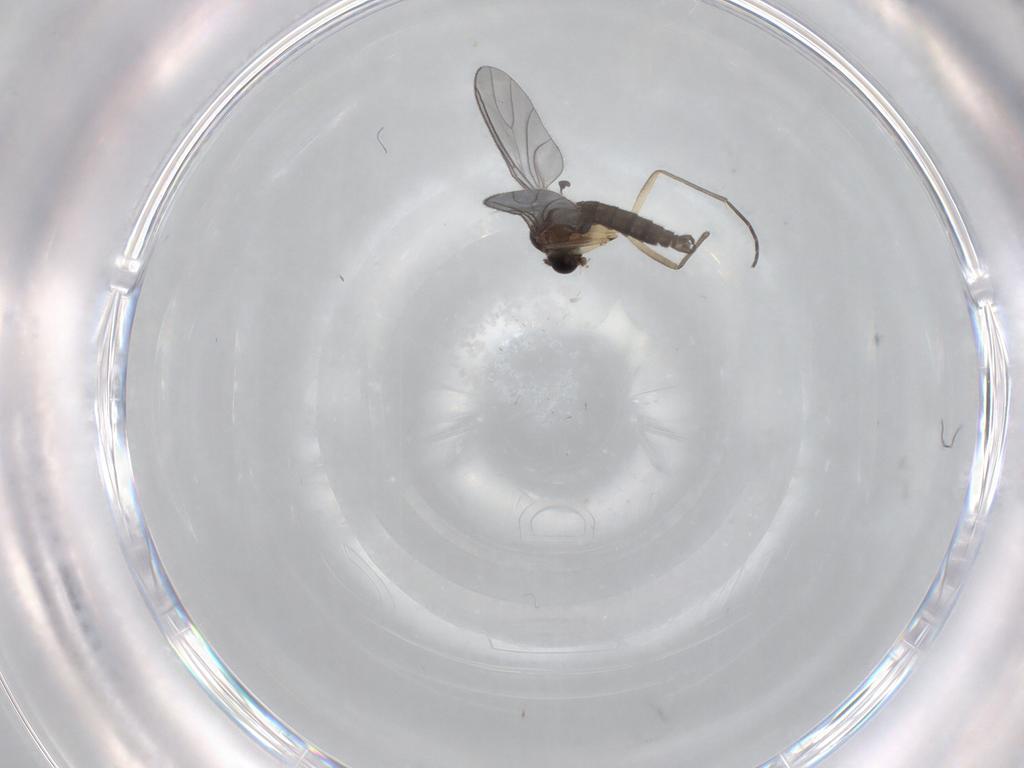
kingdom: Animalia
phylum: Arthropoda
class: Insecta
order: Diptera
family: Sciaridae
